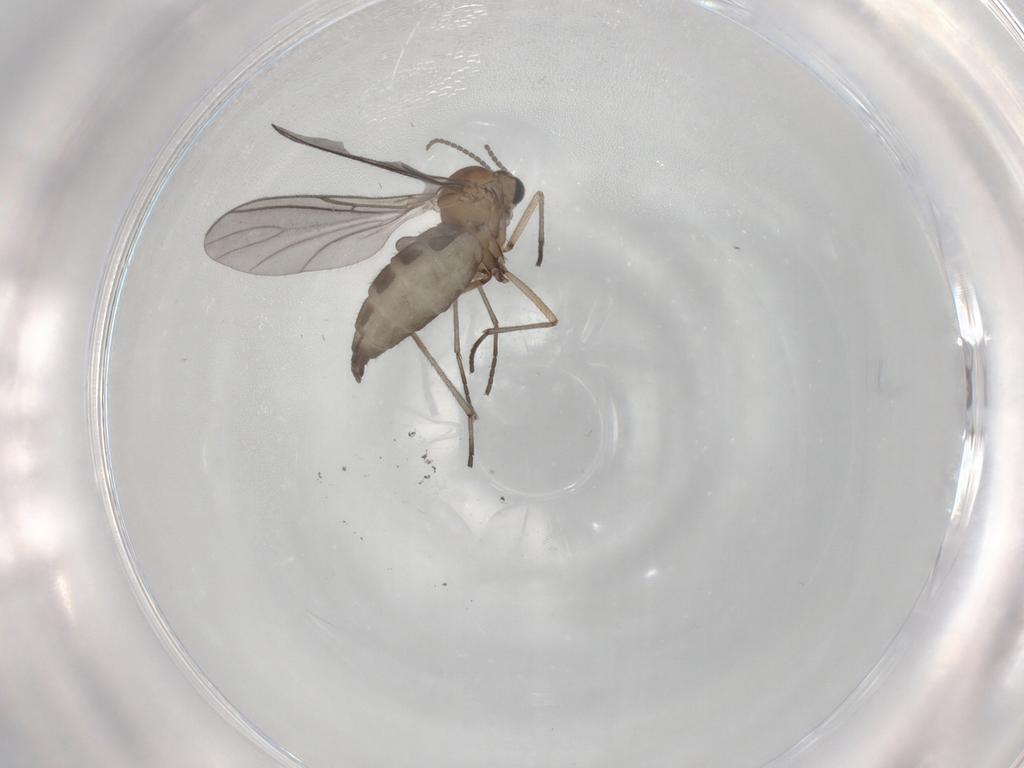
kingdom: Animalia
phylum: Arthropoda
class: Insecta
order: Diptera
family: Sciaridae
